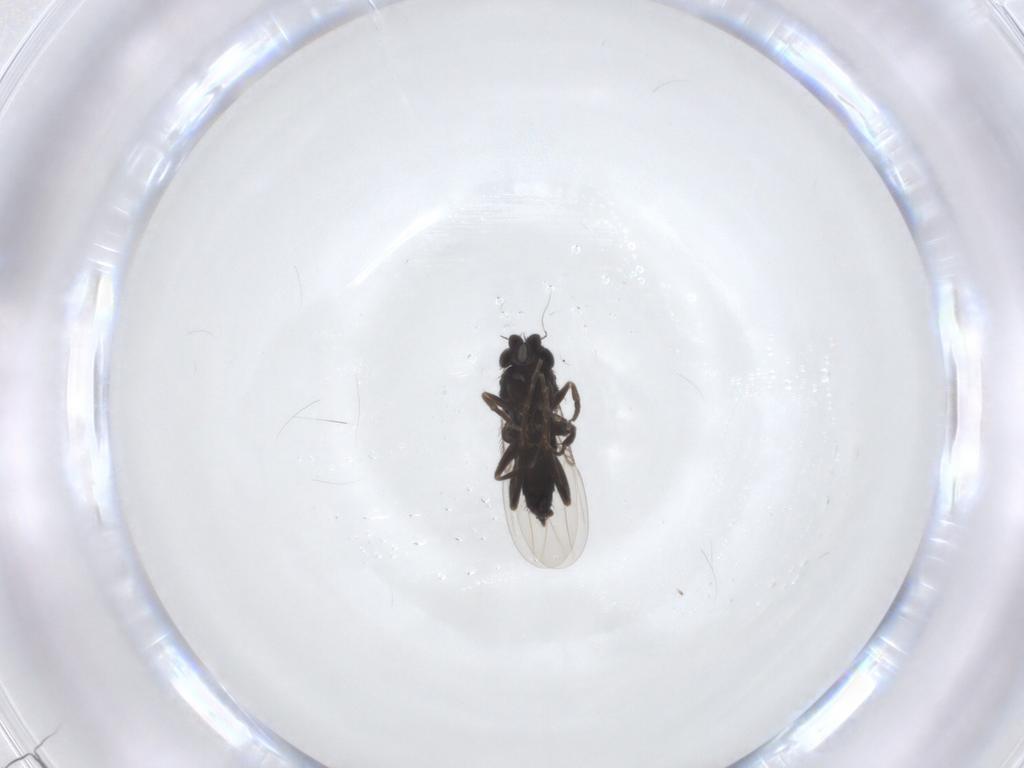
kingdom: Animalia
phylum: Arthropoda
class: Insecta
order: Diptera
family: Phoridae
